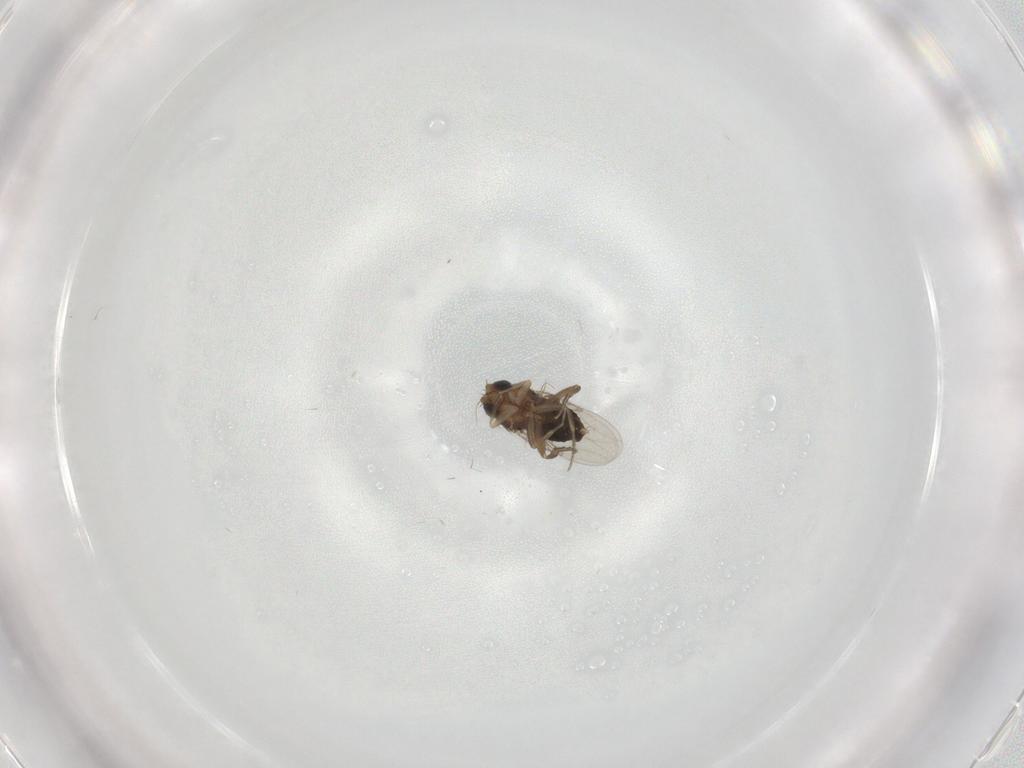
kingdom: Animalia
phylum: Arthropoda
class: Insecta
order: Diptera
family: Phoridae
